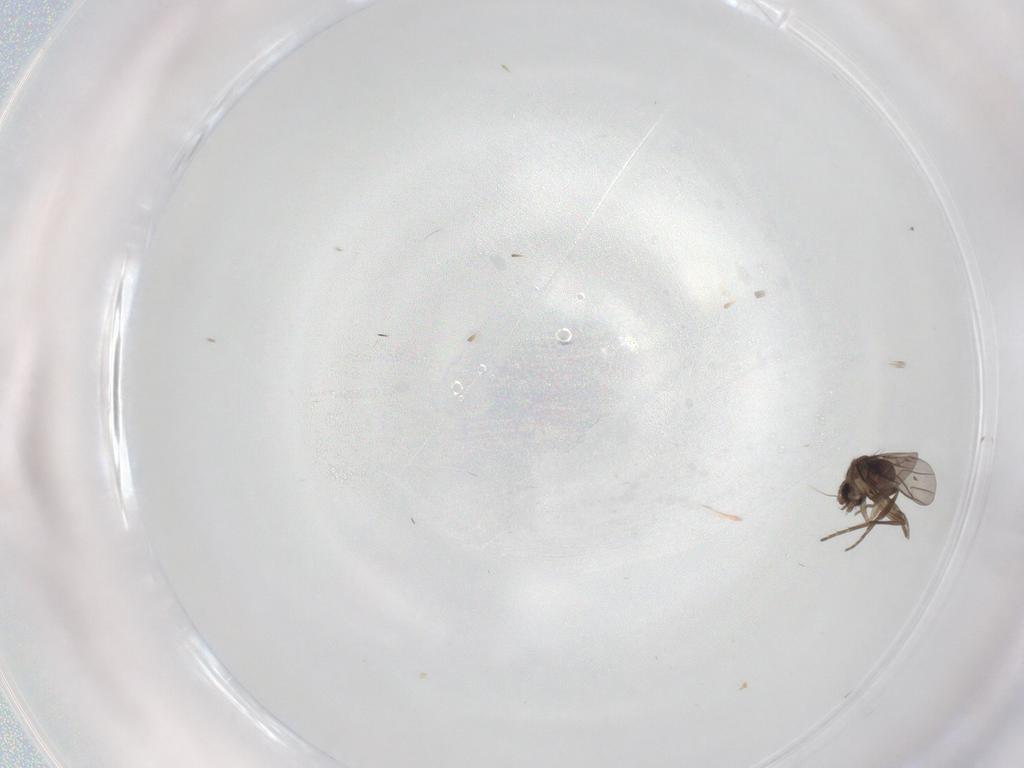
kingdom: Animalia
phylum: Arthropoda
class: Insecta
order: Diptera
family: Phoridae
